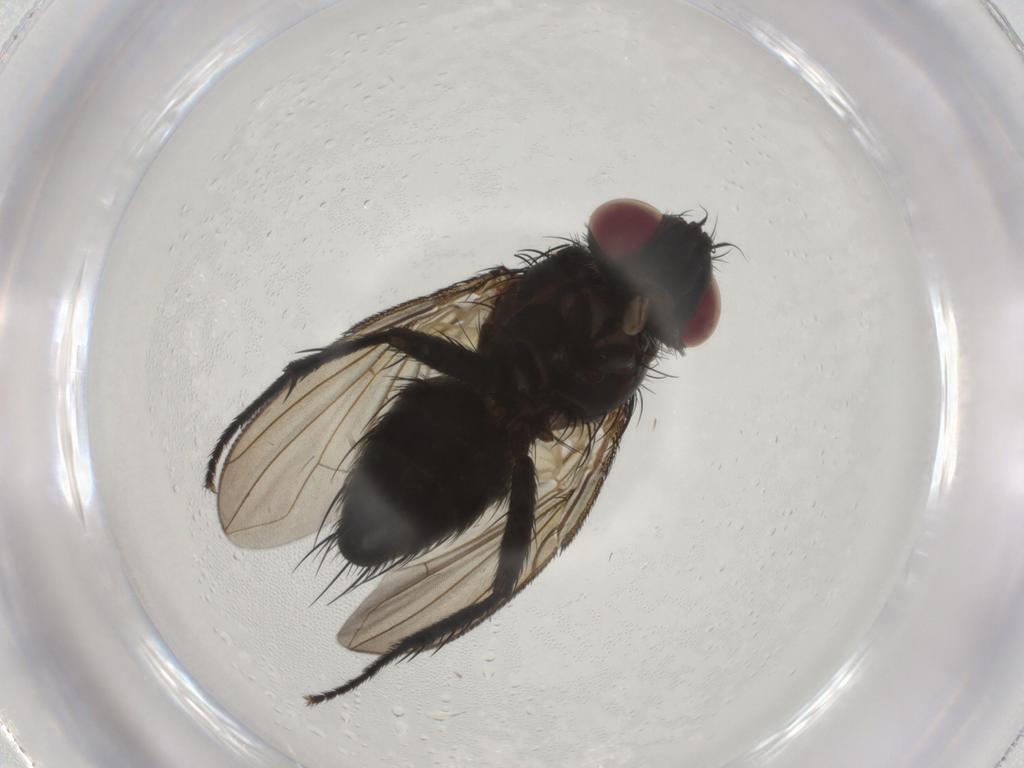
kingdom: Animalia
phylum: Arthropoda
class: Insecta
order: Diptera
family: Tachinidae
